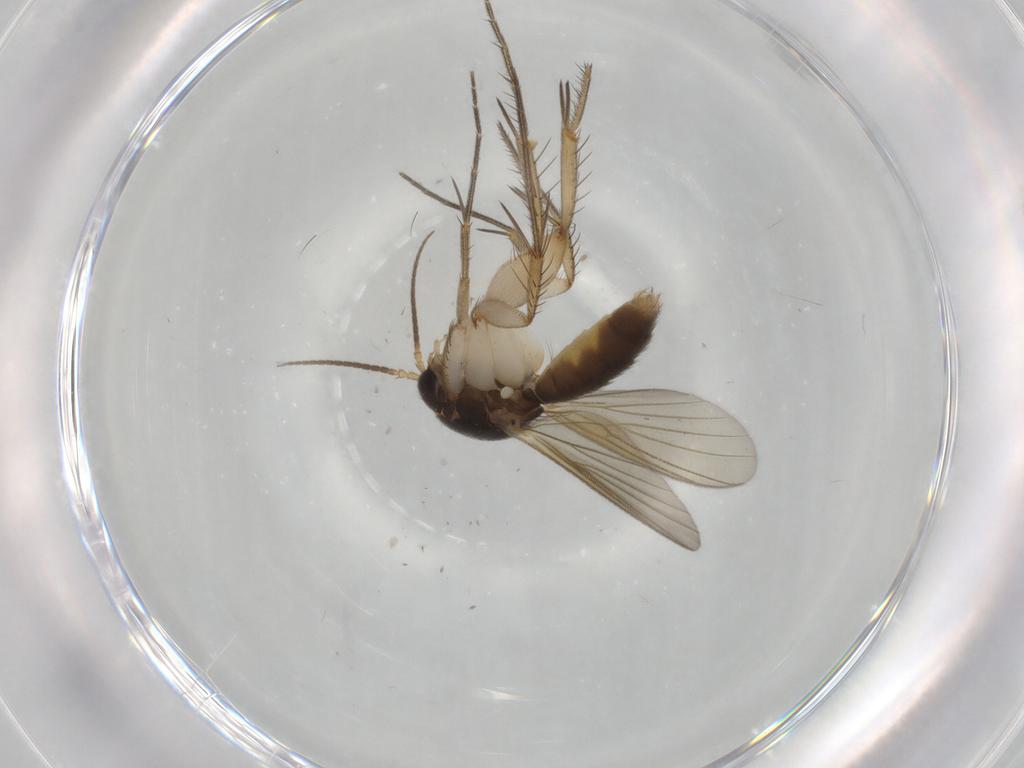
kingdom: Animalia
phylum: Arthropoda
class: Insecta
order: Diptera
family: Mycetophilidae
